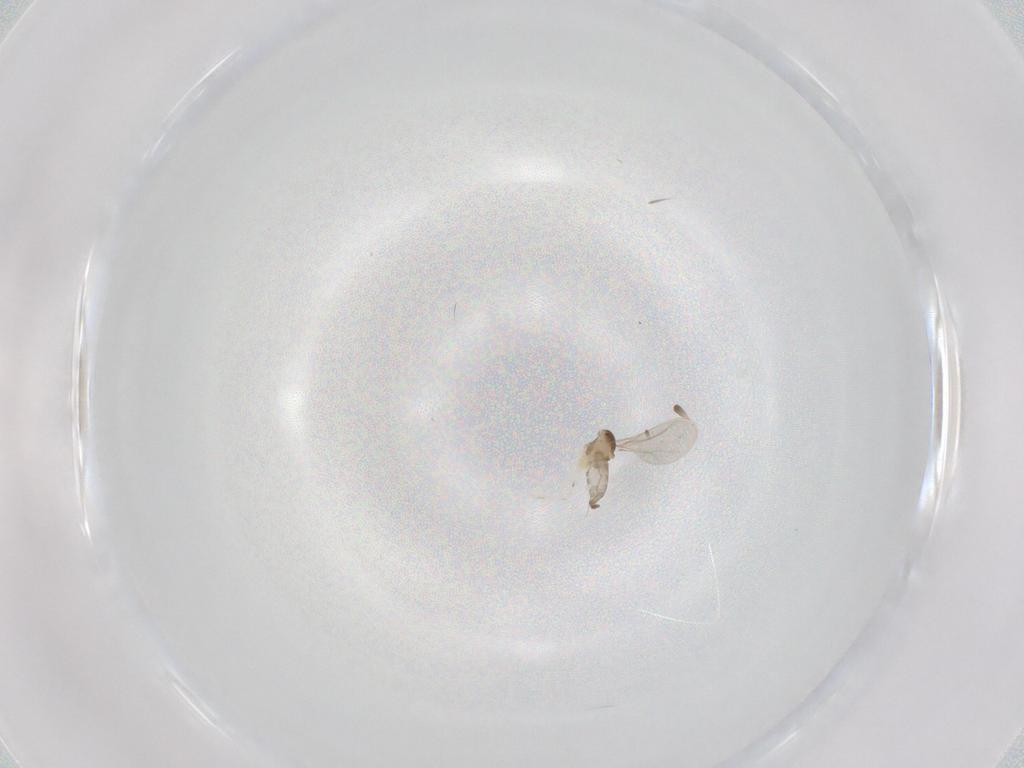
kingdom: Animalia
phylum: Arthropoda
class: Insecta
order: Diptera
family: Cecidomyiidae
